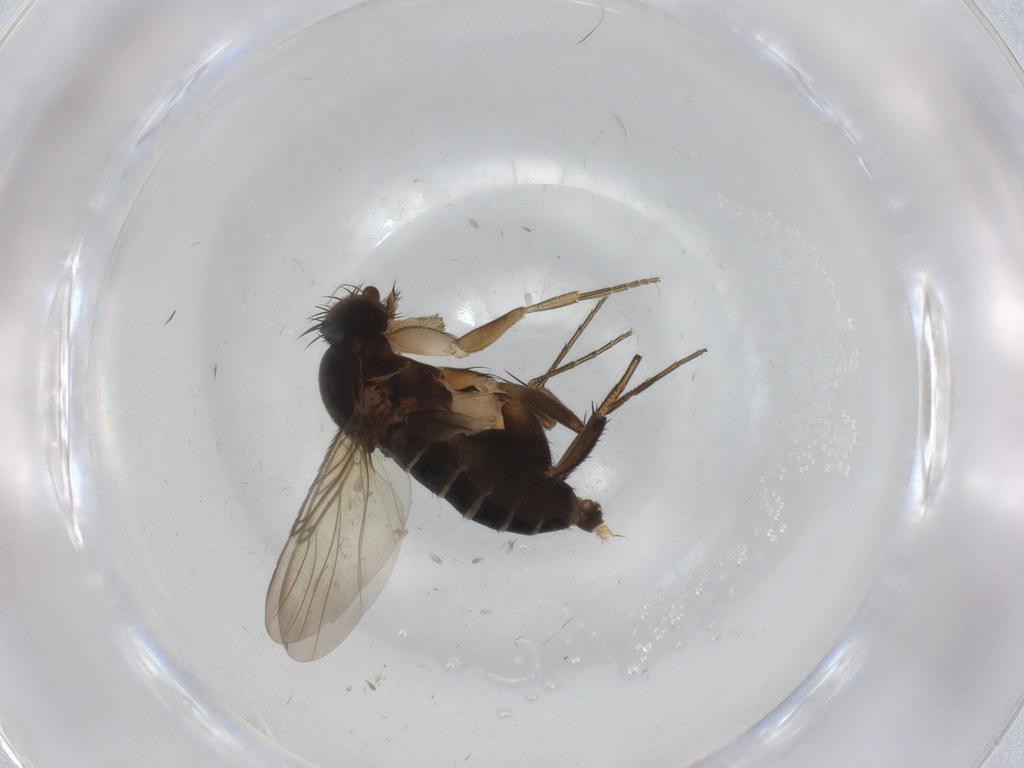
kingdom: Animalia
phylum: Arthropoda
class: Insecta
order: Diptera
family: Phoridae
